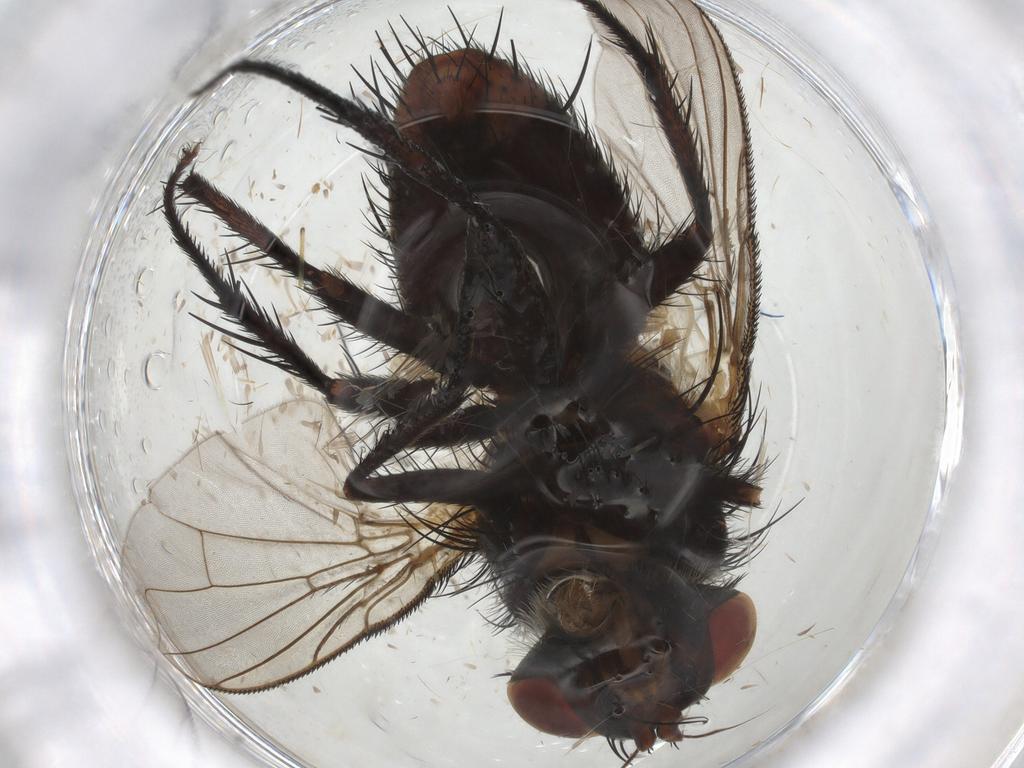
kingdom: Animalia
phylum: Arthropoda
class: Insecta
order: Diptera
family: Tachinidae
